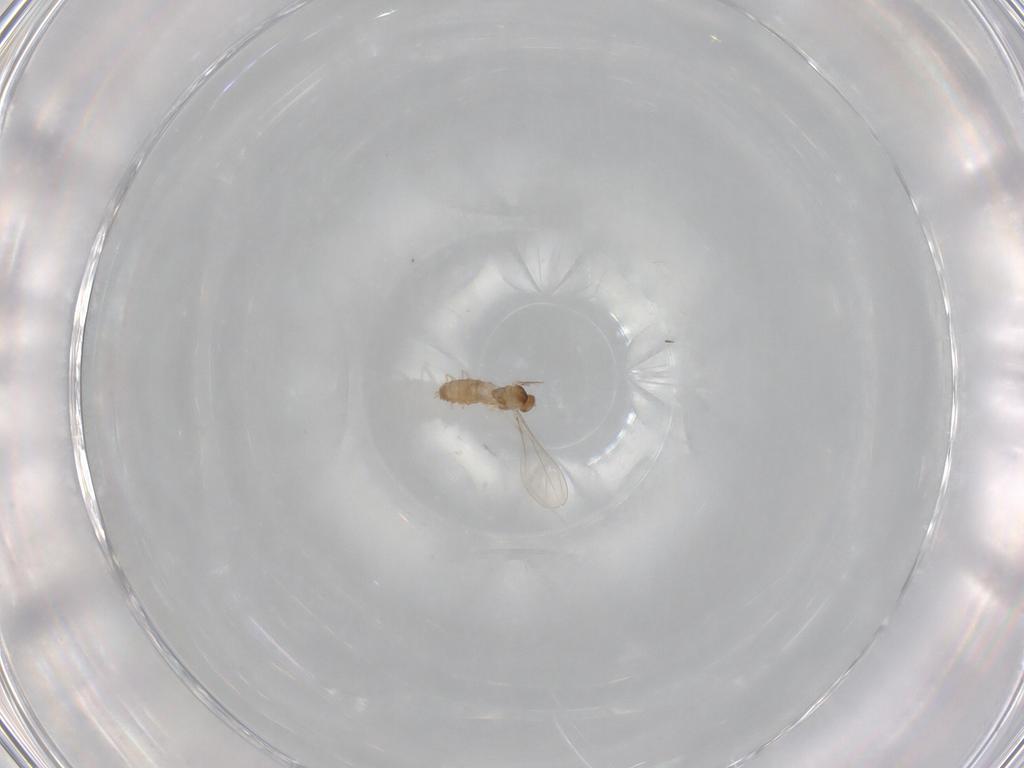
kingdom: Animalia
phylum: Arthropoda
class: Insecta
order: Diptera
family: Cecidomyiidae
